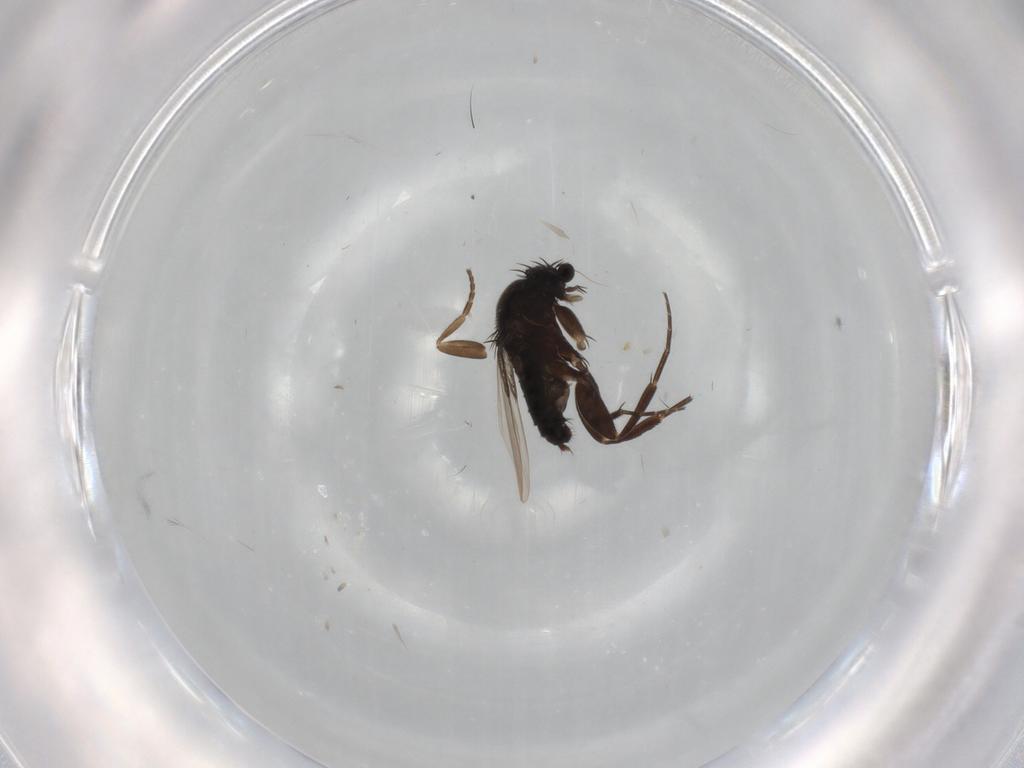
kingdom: Animalia
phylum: Arthropoda
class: Insecta
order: Diptera
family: Phoridae
